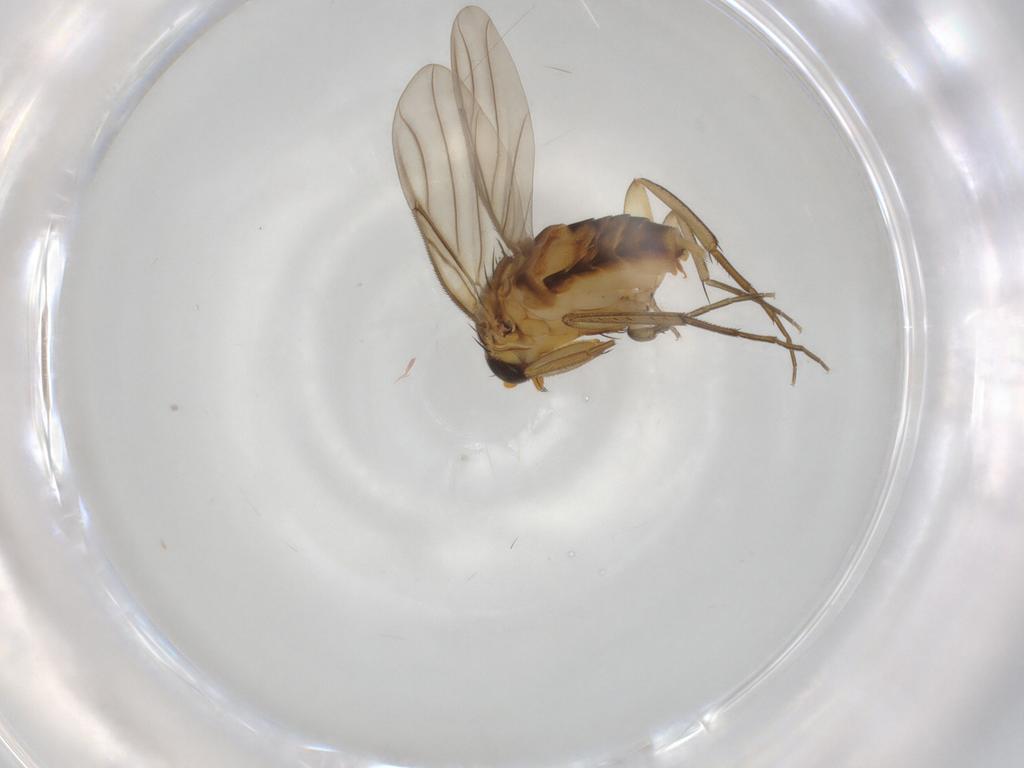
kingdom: Animalia
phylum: Arthropoda
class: Insecta
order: Diptera
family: Chaoboridae
